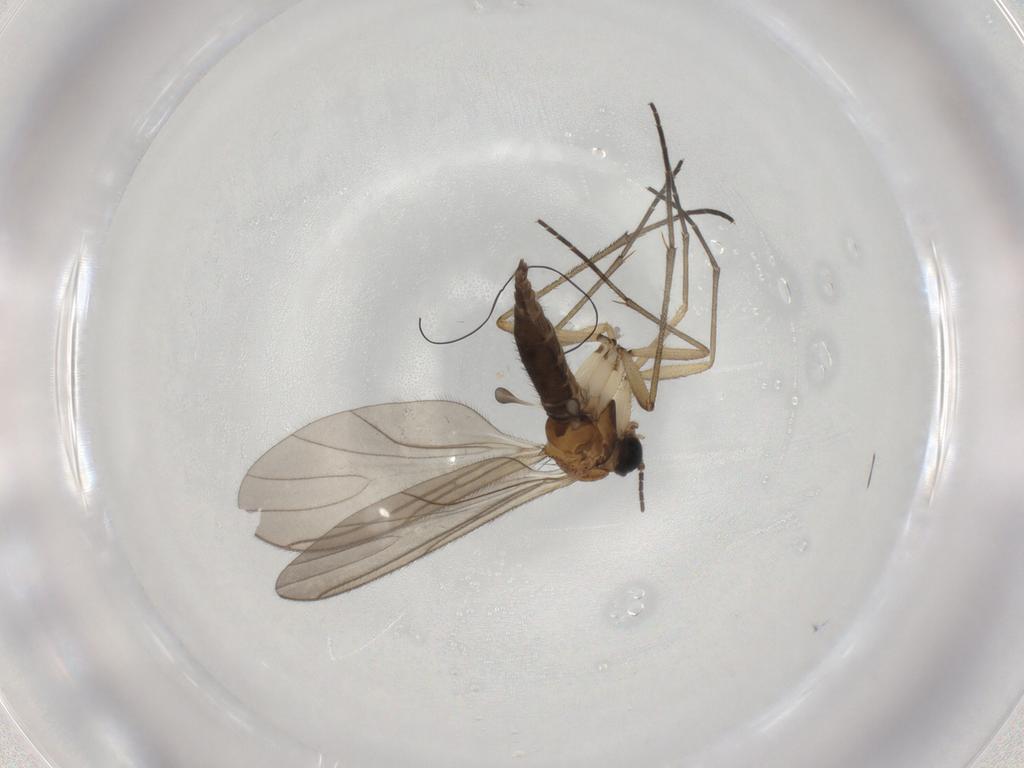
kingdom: Animalia
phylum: Arthropoda
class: Insecta
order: Diptera
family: Sciaridae
